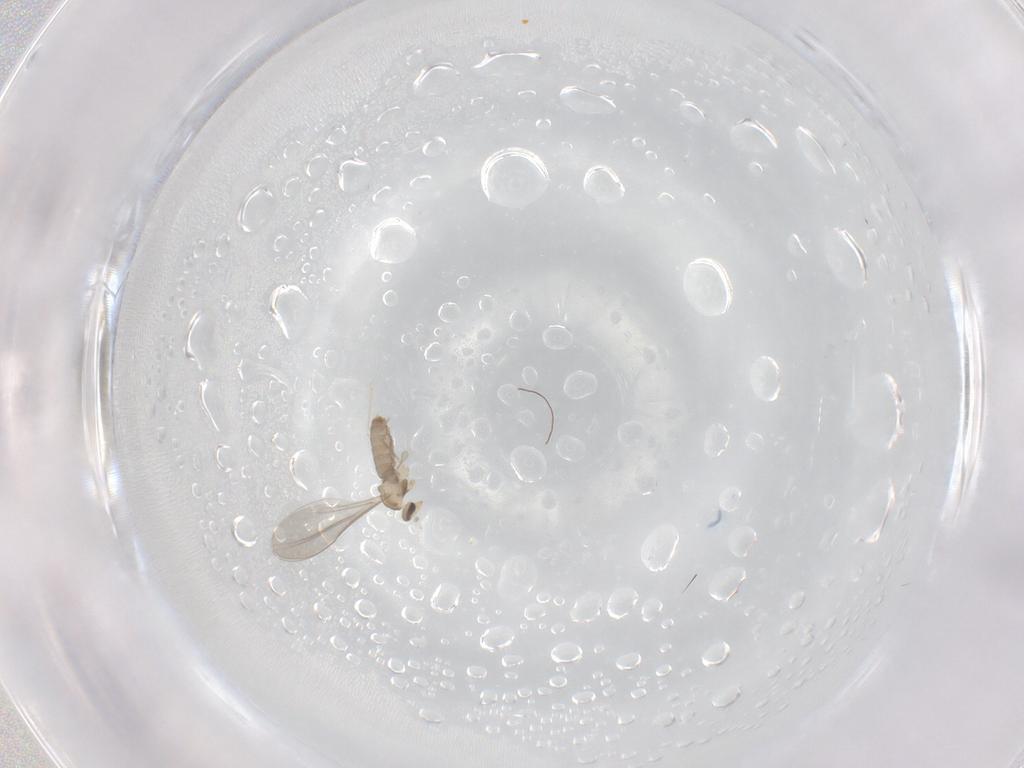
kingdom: Animalia
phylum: Arthropoda
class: Insecta
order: Diptera
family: Cecidomyiidae
